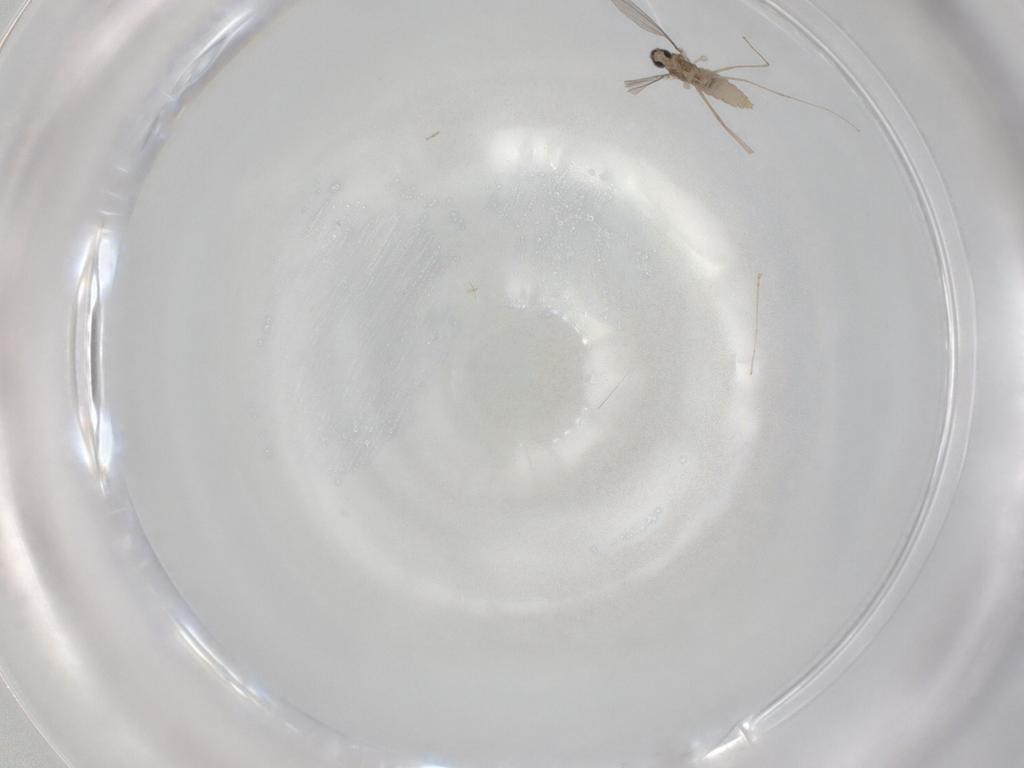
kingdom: Animalia
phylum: Arthropoda
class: Insecta
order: Diptera
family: Cecidomyiidae
